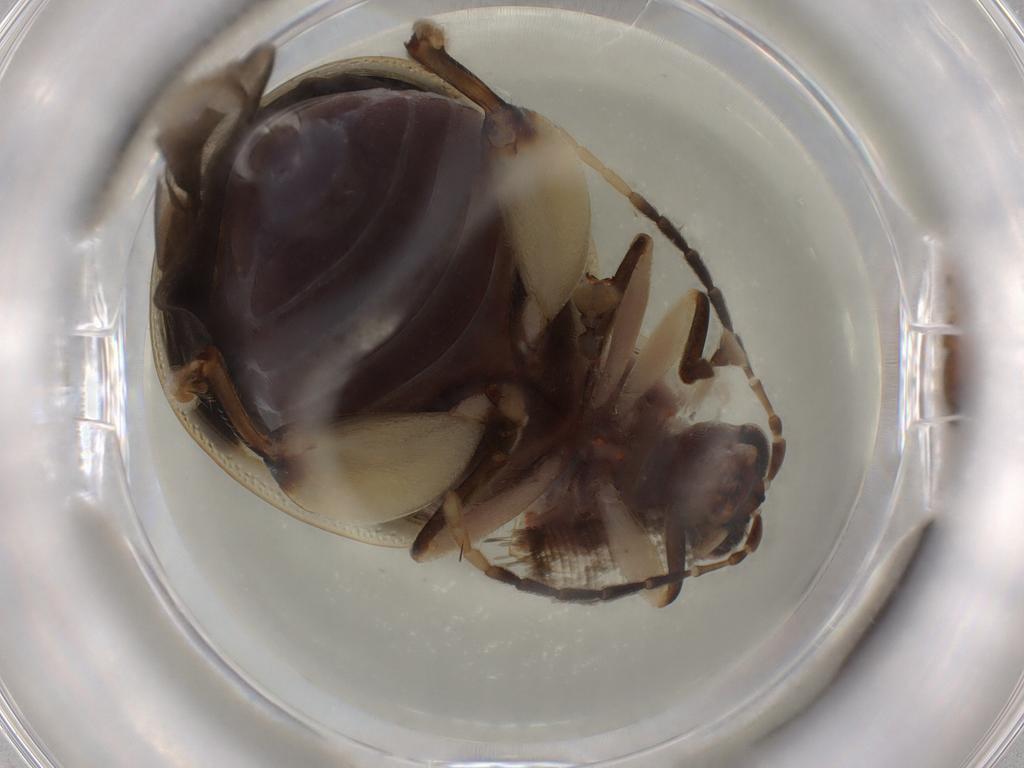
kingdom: Animalia
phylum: Arthropoda
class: Insecta
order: Coleoptera
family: Chrysomelidae
